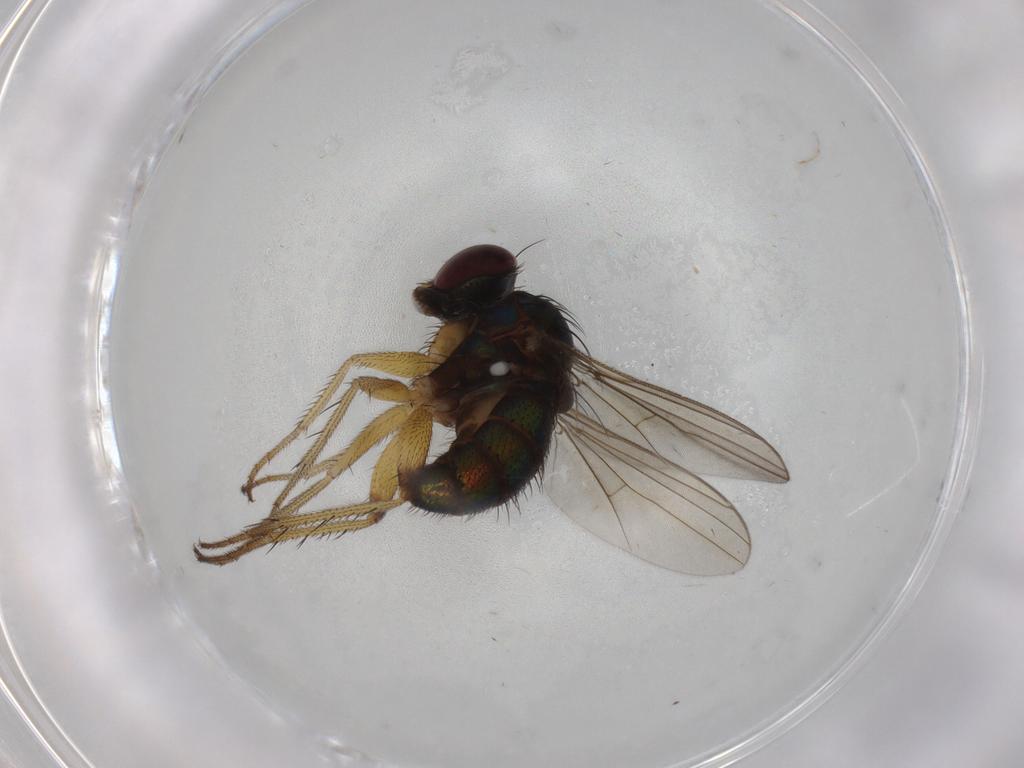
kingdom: Animalia
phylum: Arthropoda
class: Insecta
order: Diptera
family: Dolichopodidae
